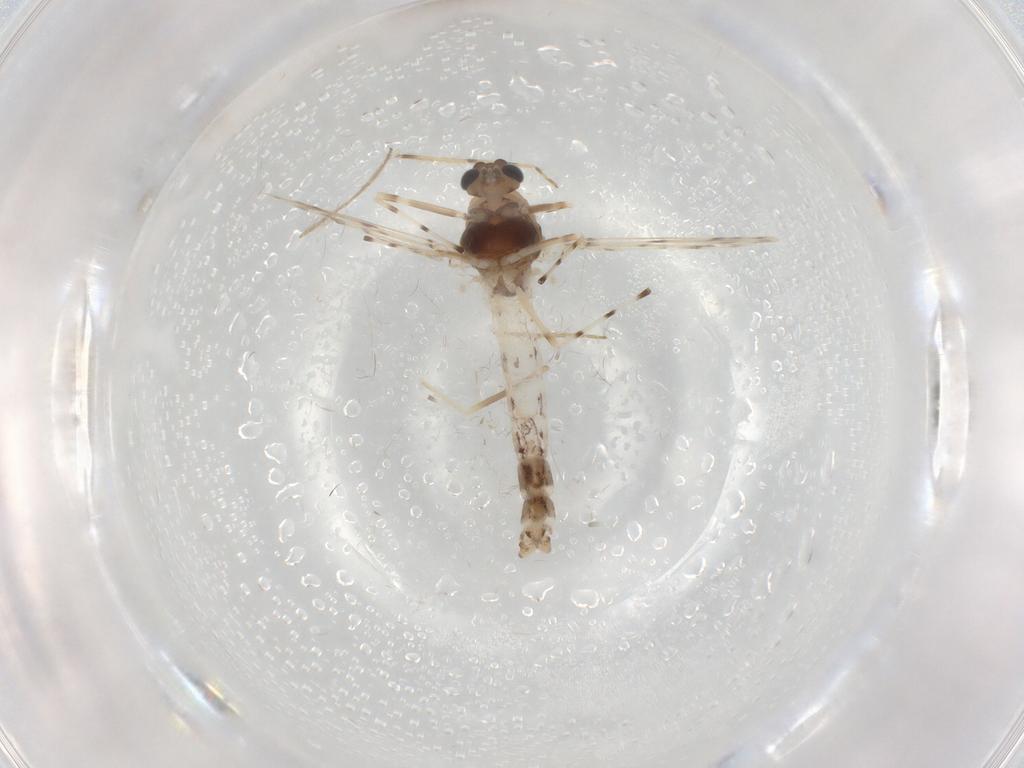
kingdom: Animalia
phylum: Arthropoda
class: Insecta
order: Diptera
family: Chironomidae
